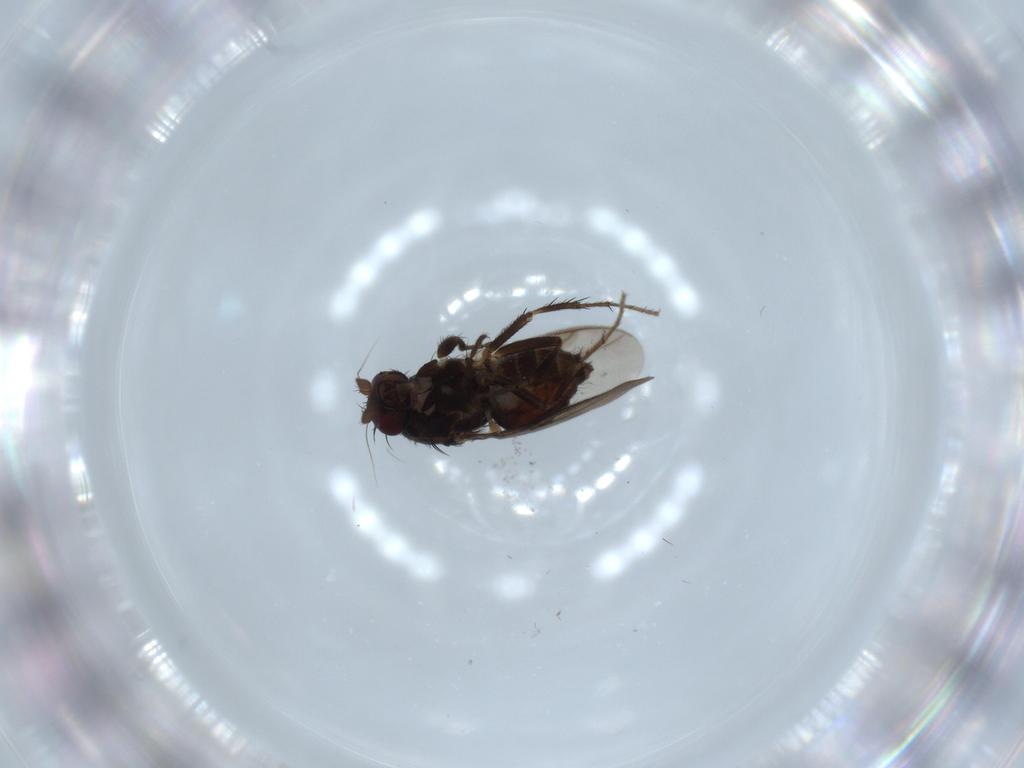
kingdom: Animalia
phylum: Arthropoda
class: Insecta
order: Diptera
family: Sphaeroceridae
